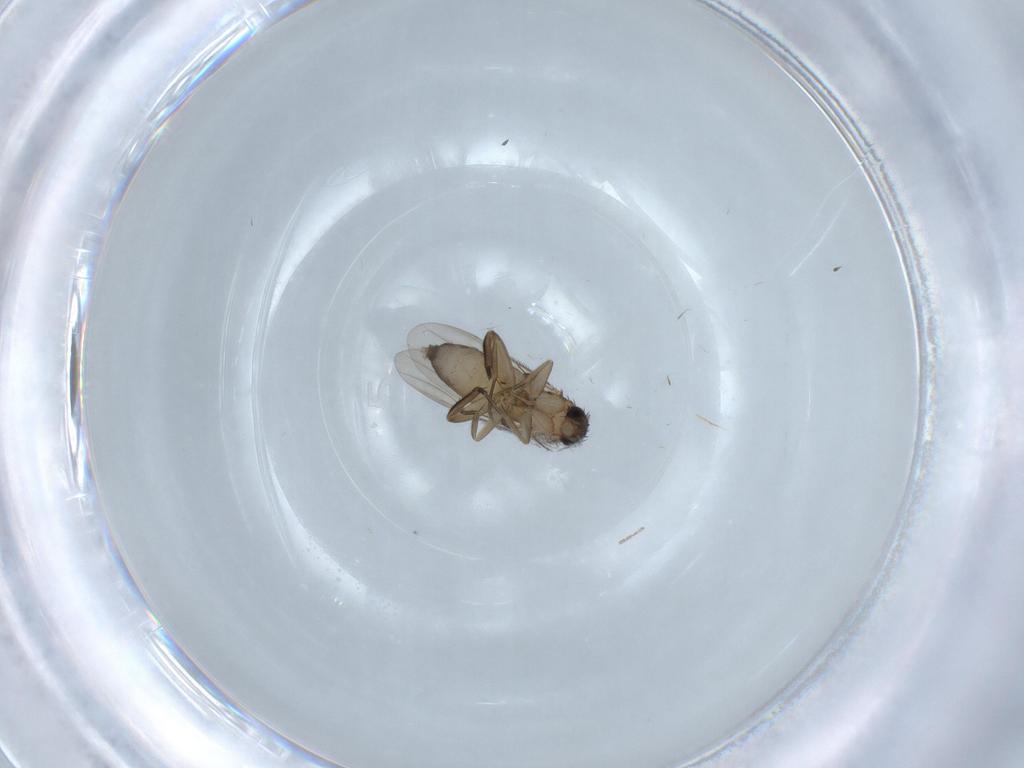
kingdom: Animalia
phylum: Arthropoda
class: Insecta
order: Diptera
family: Phoridae
